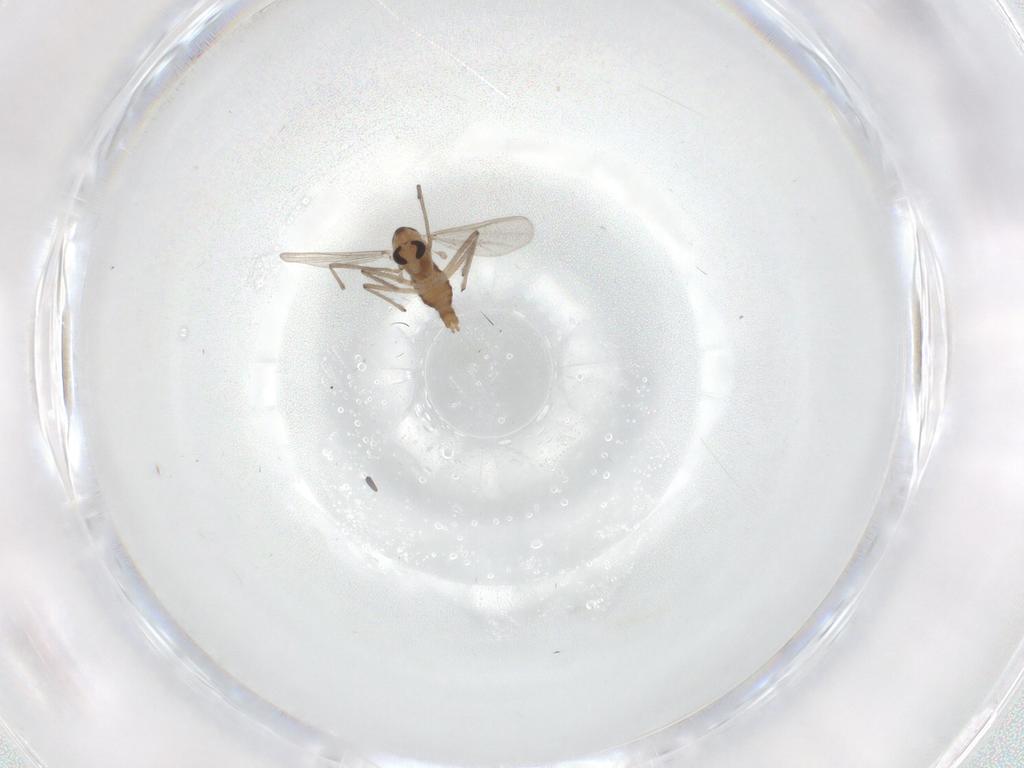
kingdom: Animalia
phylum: Arthropoda
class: Insecta
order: Diptera
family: Chironomidae
